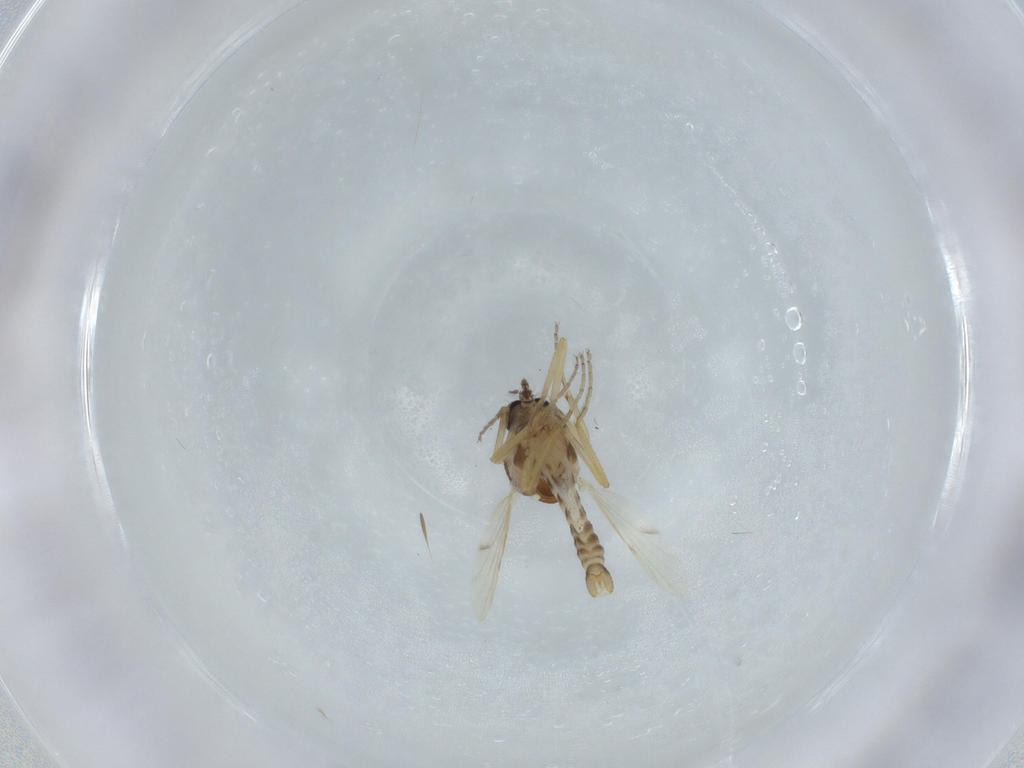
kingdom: Animalia
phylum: Arthropoda
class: Insecta
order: Diptera
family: Ceratopogonidae
